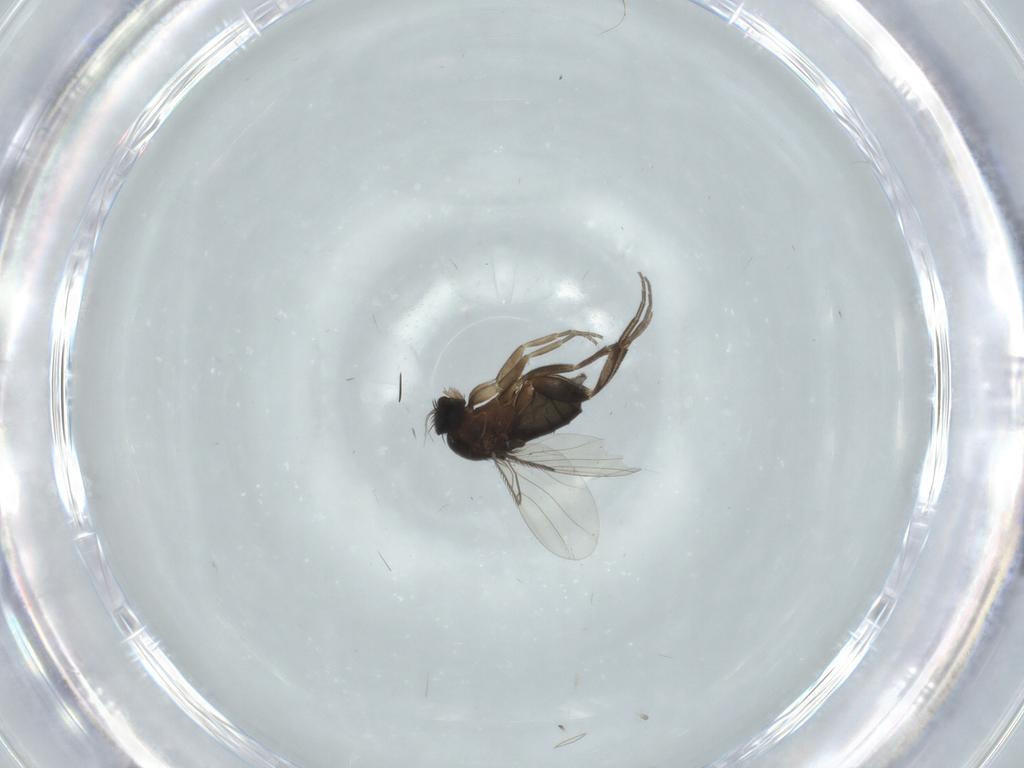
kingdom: Animalia
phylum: Arthropoda
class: Insecta
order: Diptera
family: Phoridae
